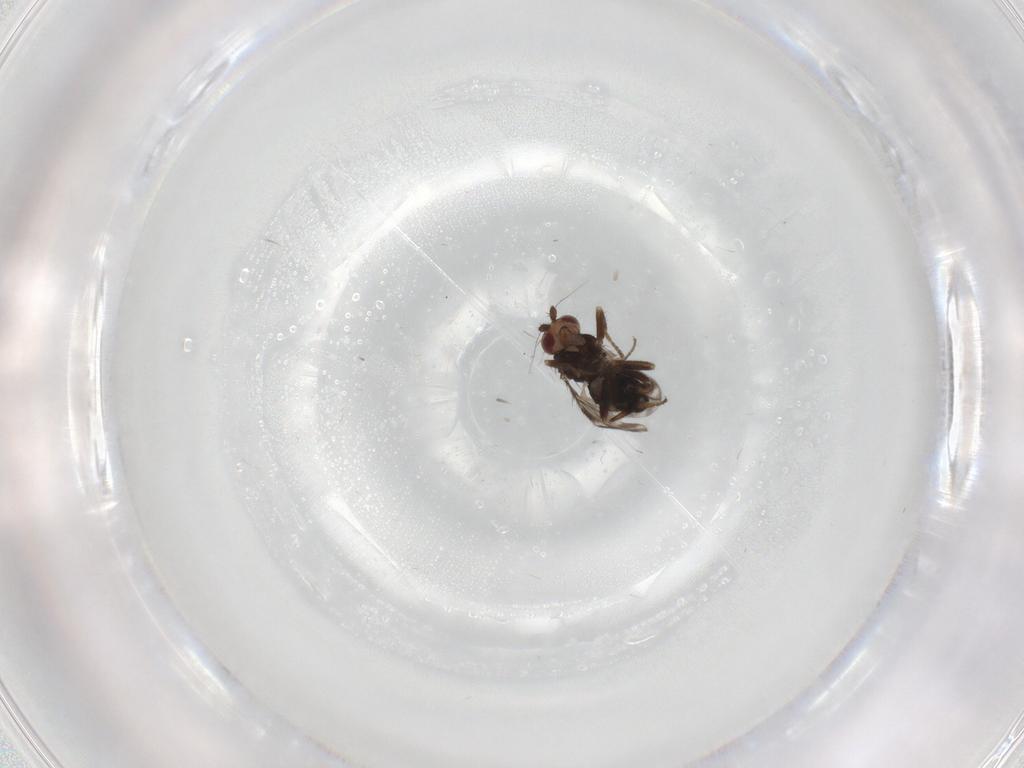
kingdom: Animalia
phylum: Arthropoda
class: Insecta
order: Diptera
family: Sphaeroceridae
